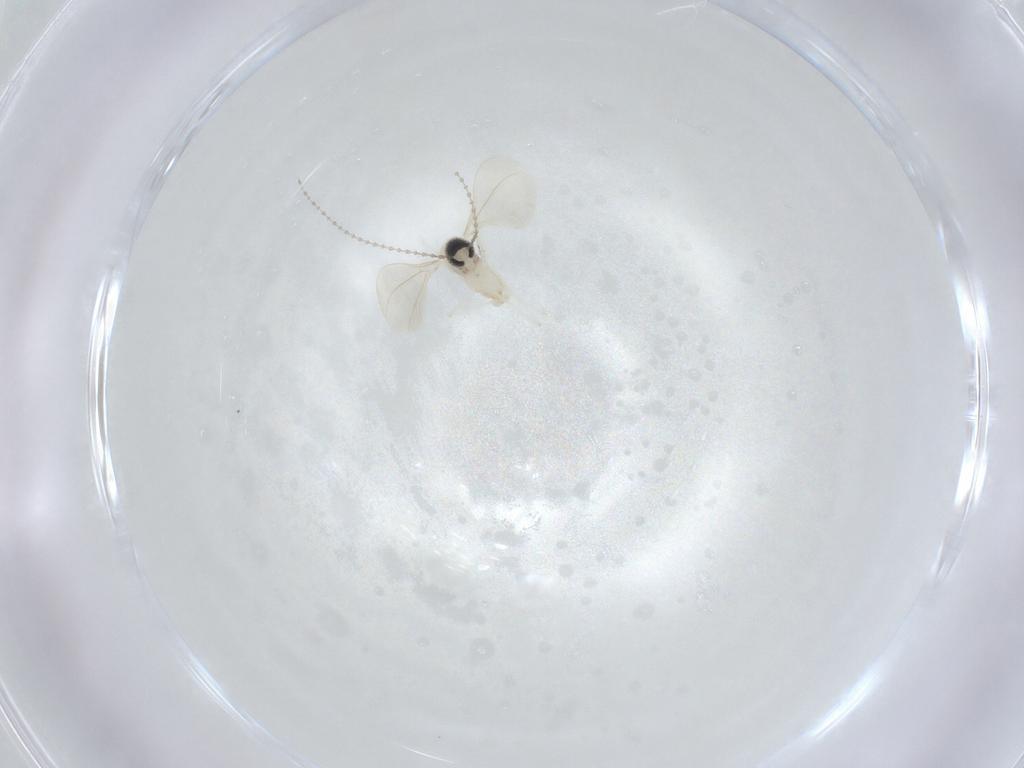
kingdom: Animalia
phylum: Arthropoda
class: Insecta
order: Diptera
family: Cecidomyiidae
